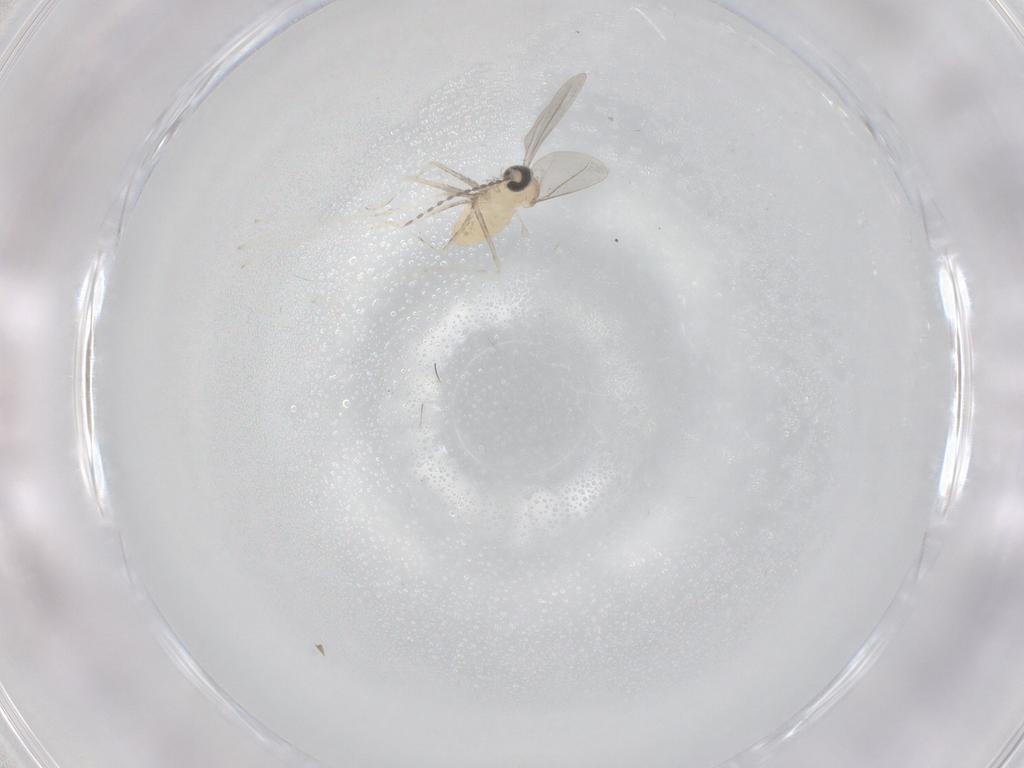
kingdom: Animalia
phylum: Arthropoda
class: Insecta
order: Diptera
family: Cecidomyiidae
